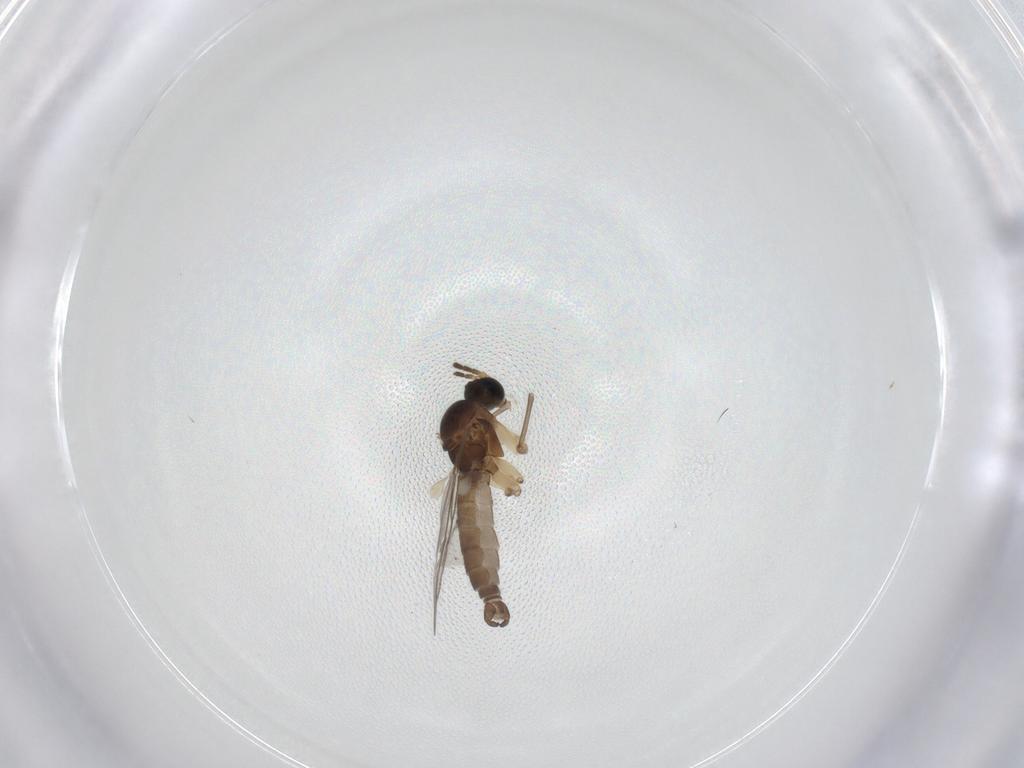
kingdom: Animalia
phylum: Arthropoda
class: Insecta
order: Diptera
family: Sciaridae
